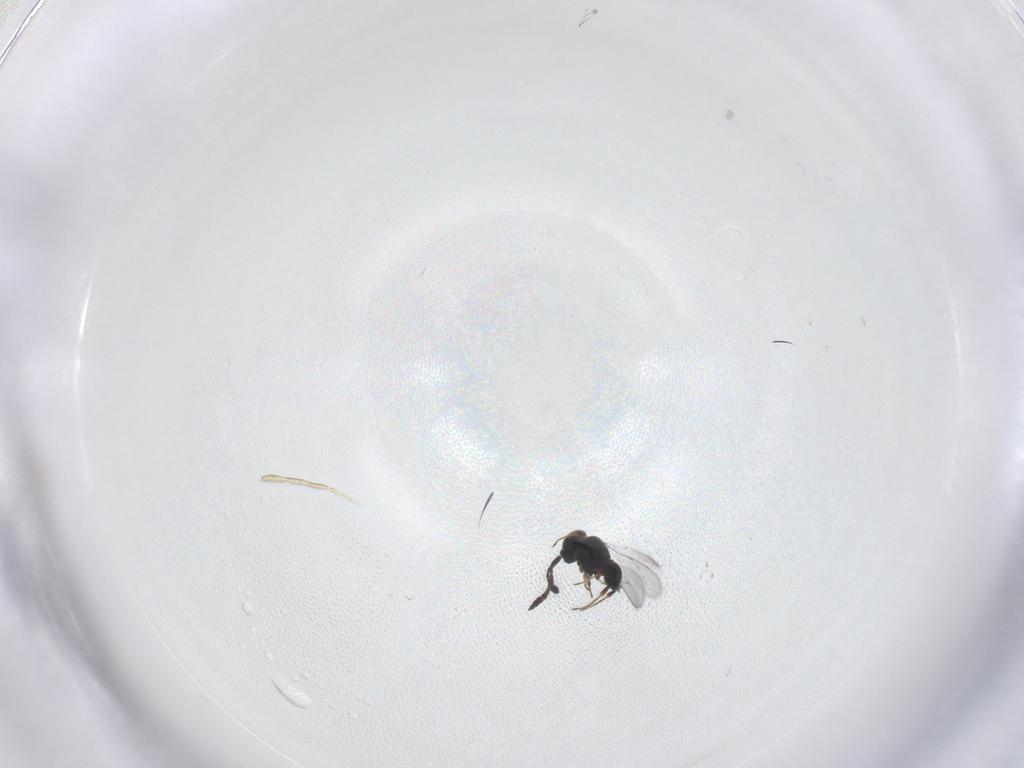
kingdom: Animalia
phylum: Arthropoda
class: Insecta
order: Hymenoptera
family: Scelionidae
